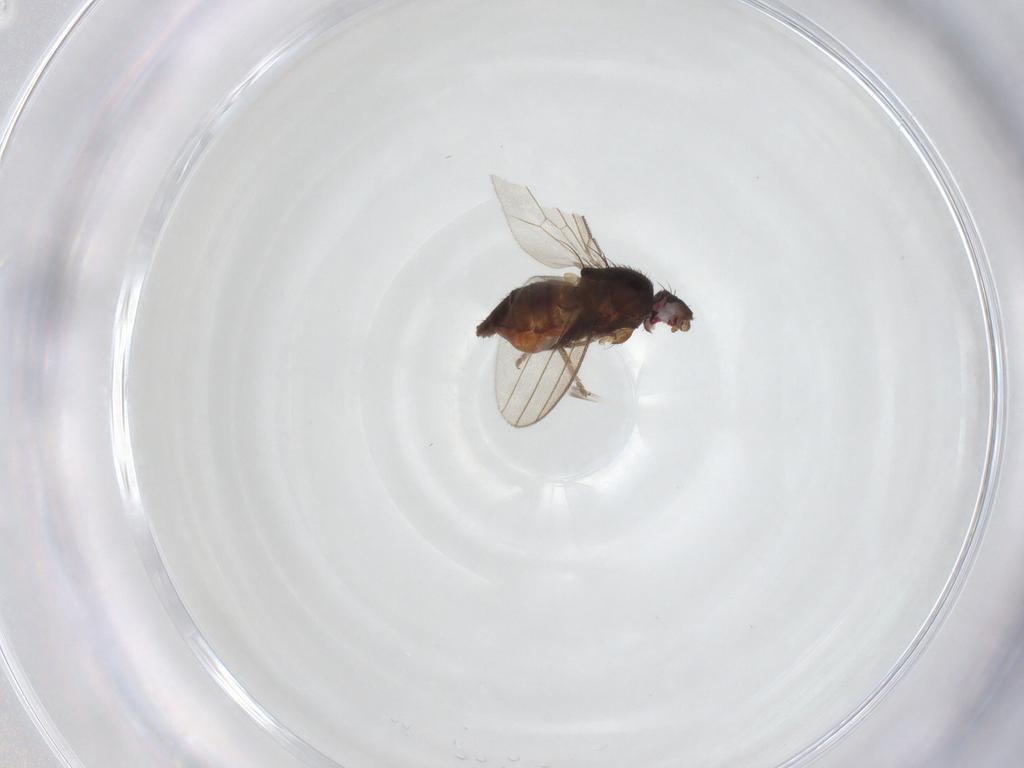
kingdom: Animalia
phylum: Arthropoda
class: Insecta
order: Diptera
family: Milichiidae
